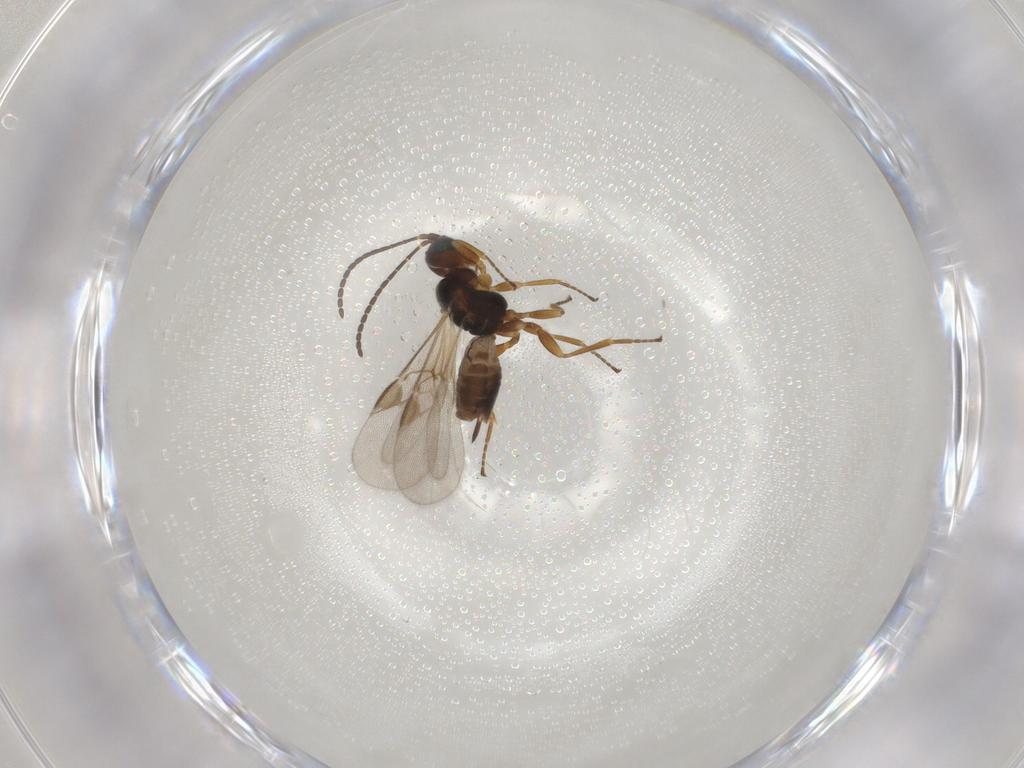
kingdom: Animalia
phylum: Arthropoda
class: Insecta
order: Hymenoptera
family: Braconidae
